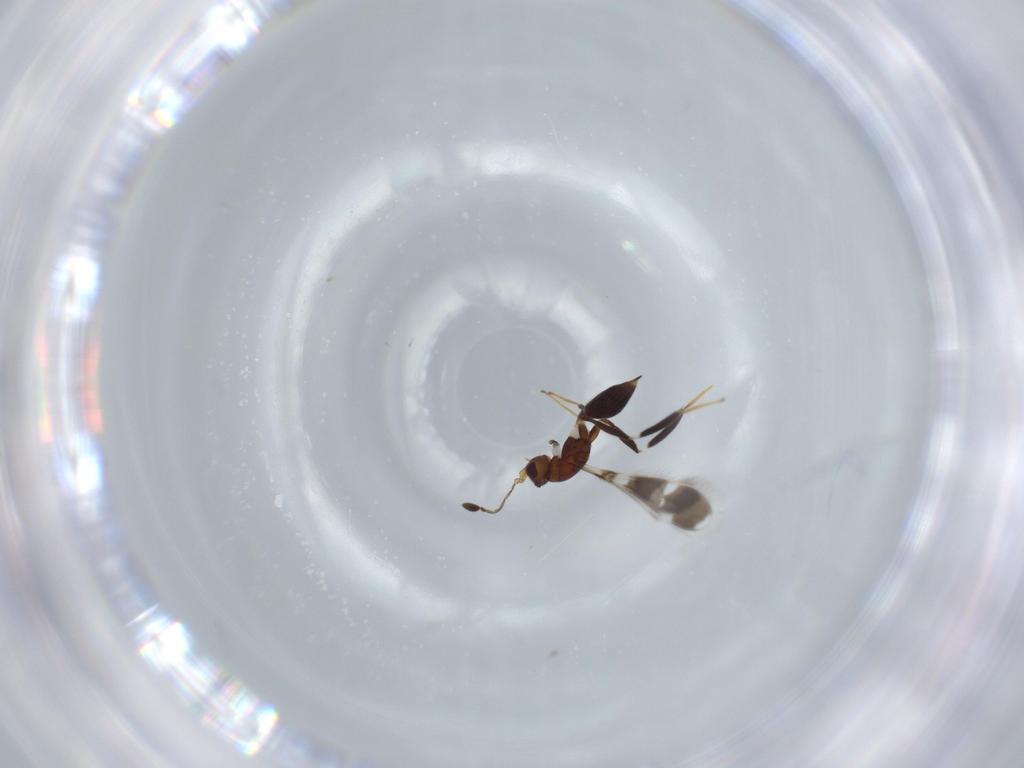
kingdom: Animalia
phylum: Arthropoda
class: Insecta
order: Hymenoptera
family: Mymaridae
